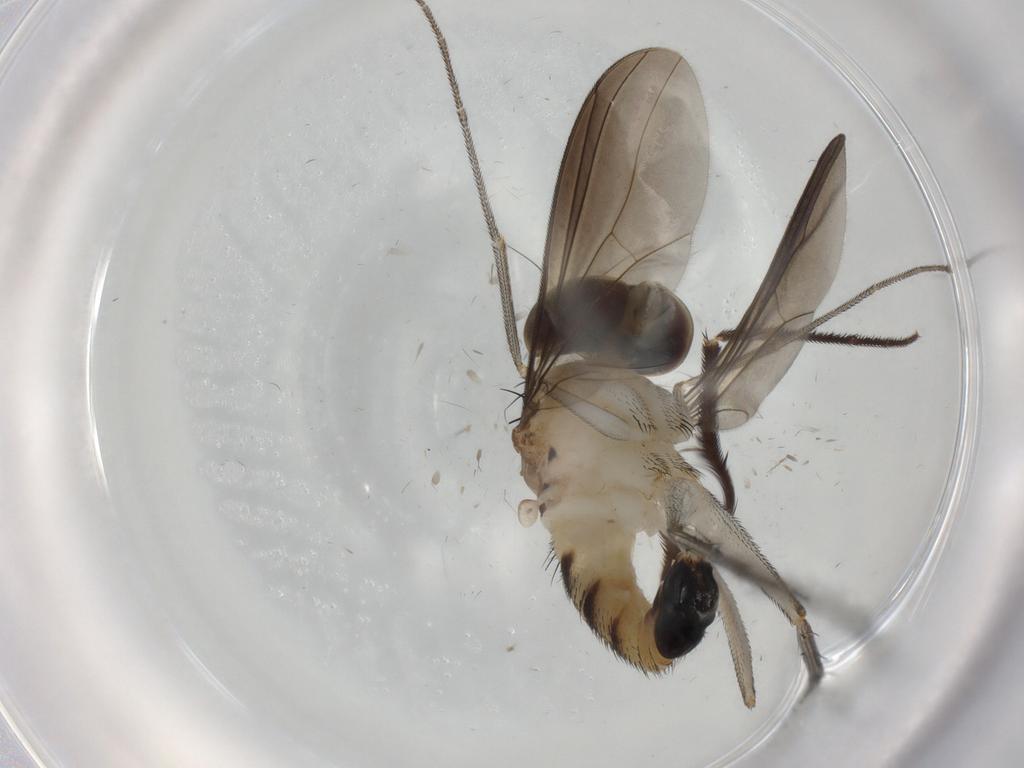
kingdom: Animalia
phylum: Arthropoda
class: Insecta
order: Diptera
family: Dolichopodidae
